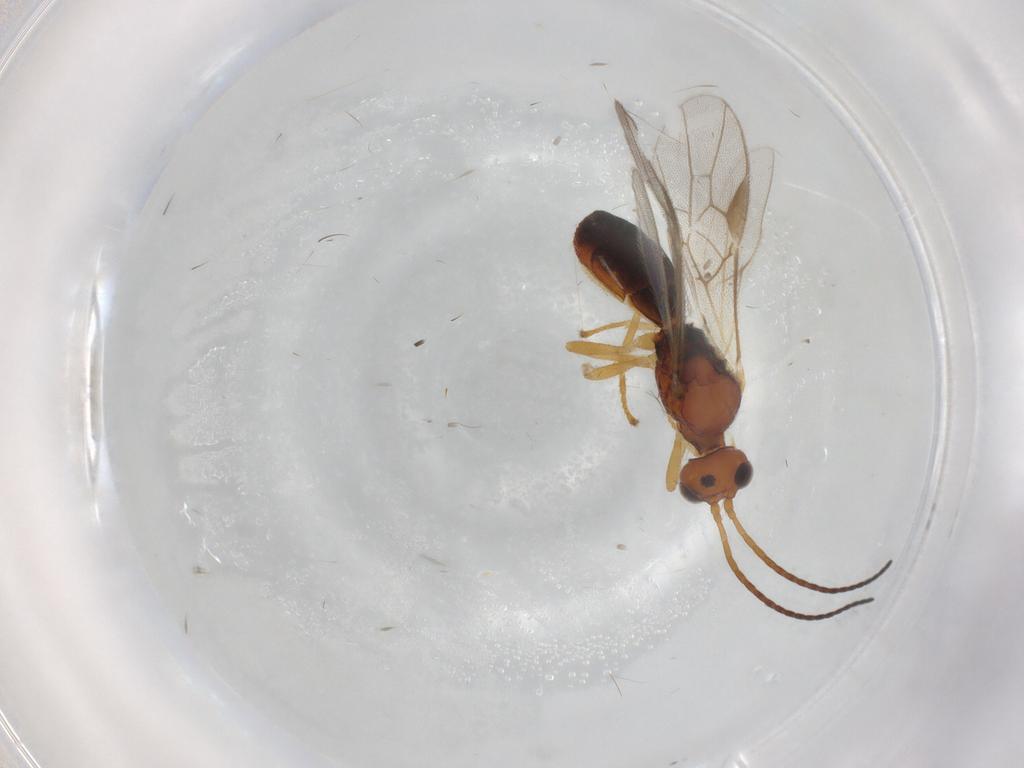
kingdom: Animalia
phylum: Arthropoda
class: Insecta
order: Hymenoptera
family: Braconidae
